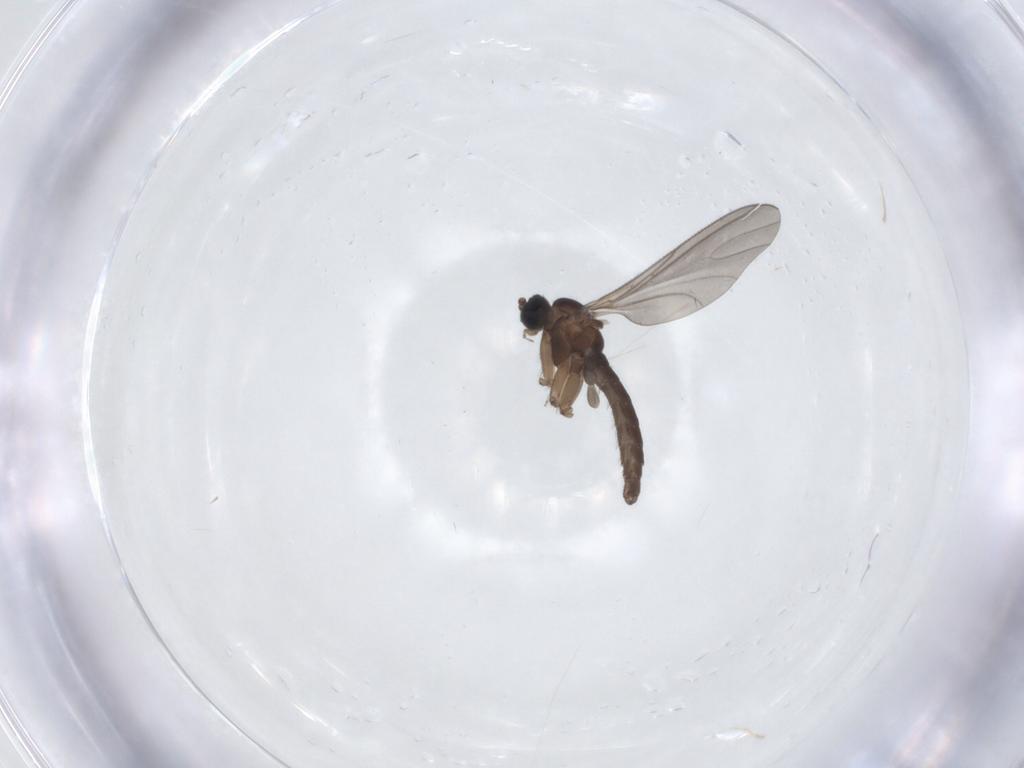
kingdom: Animalia
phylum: Arthropoda
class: Insecta
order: Diptera
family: Sciaridae
